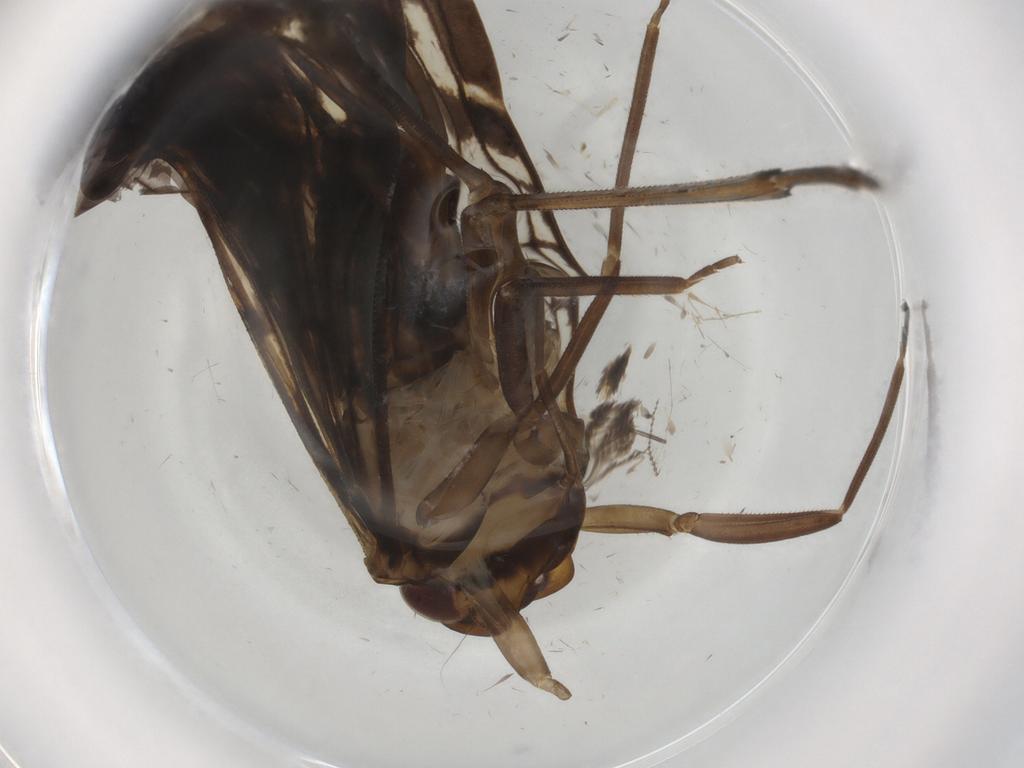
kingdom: Animalia
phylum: Arthropoda
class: Insecta
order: Hemiptera
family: Cixiidae
